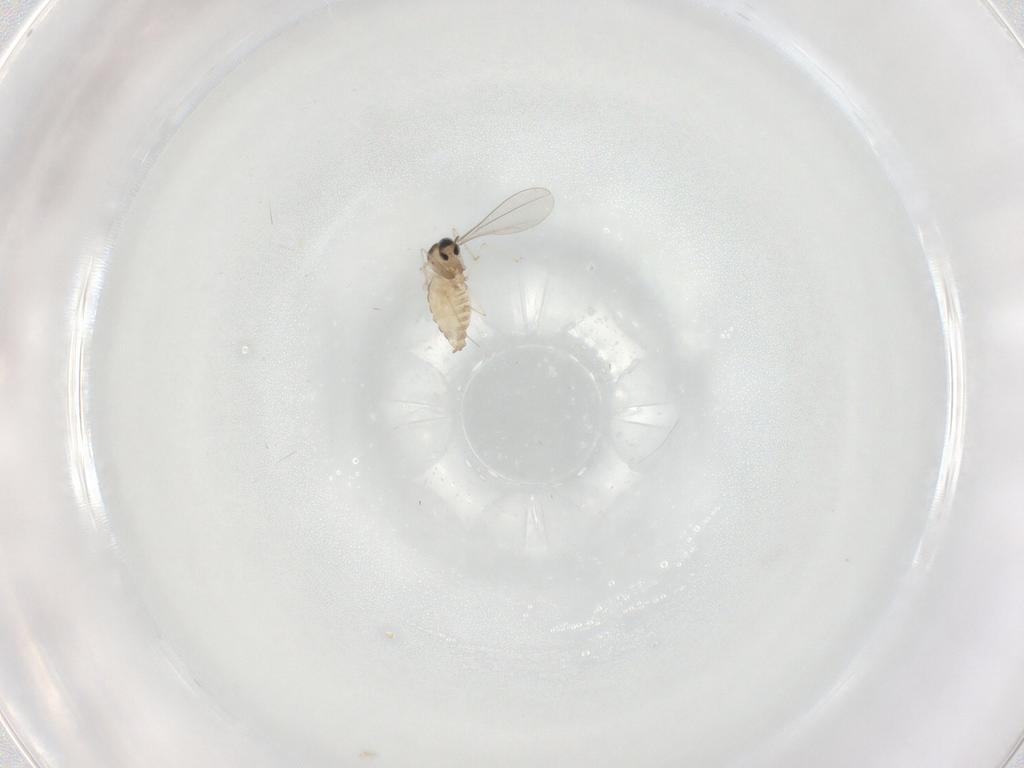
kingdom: Animalia
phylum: Arthropoda
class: Insecta
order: Diptera
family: Cecidomyiidae
